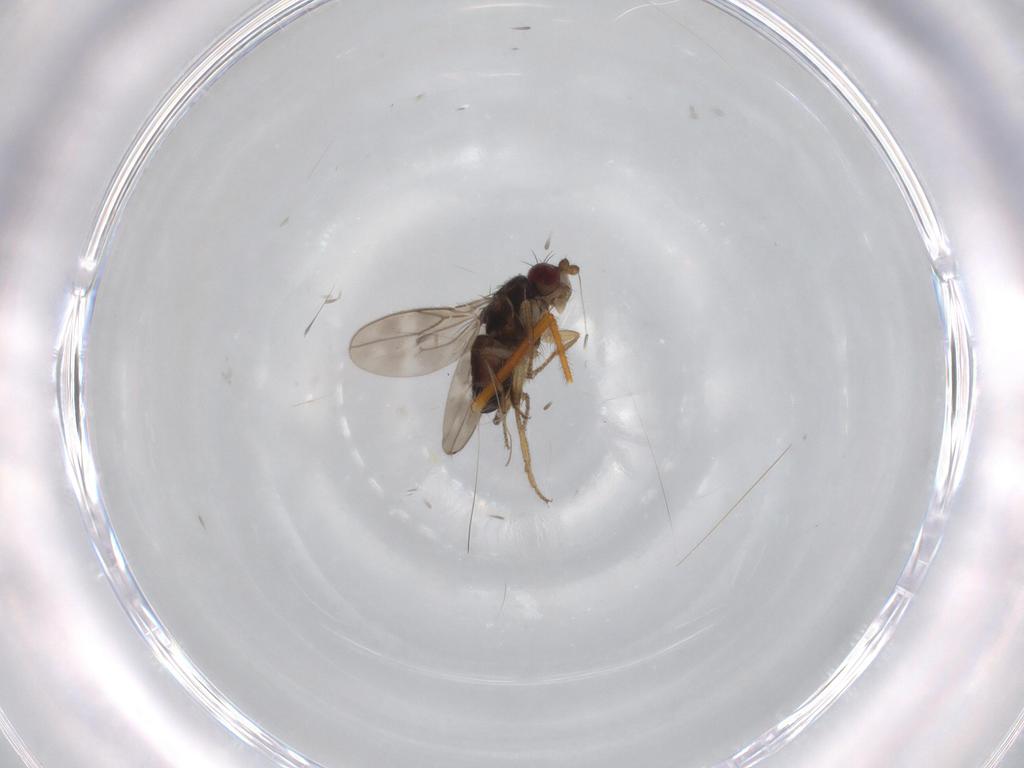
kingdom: Animalia
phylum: Arthropoda
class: Insecta
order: Diptera
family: Sphaeroceridae
